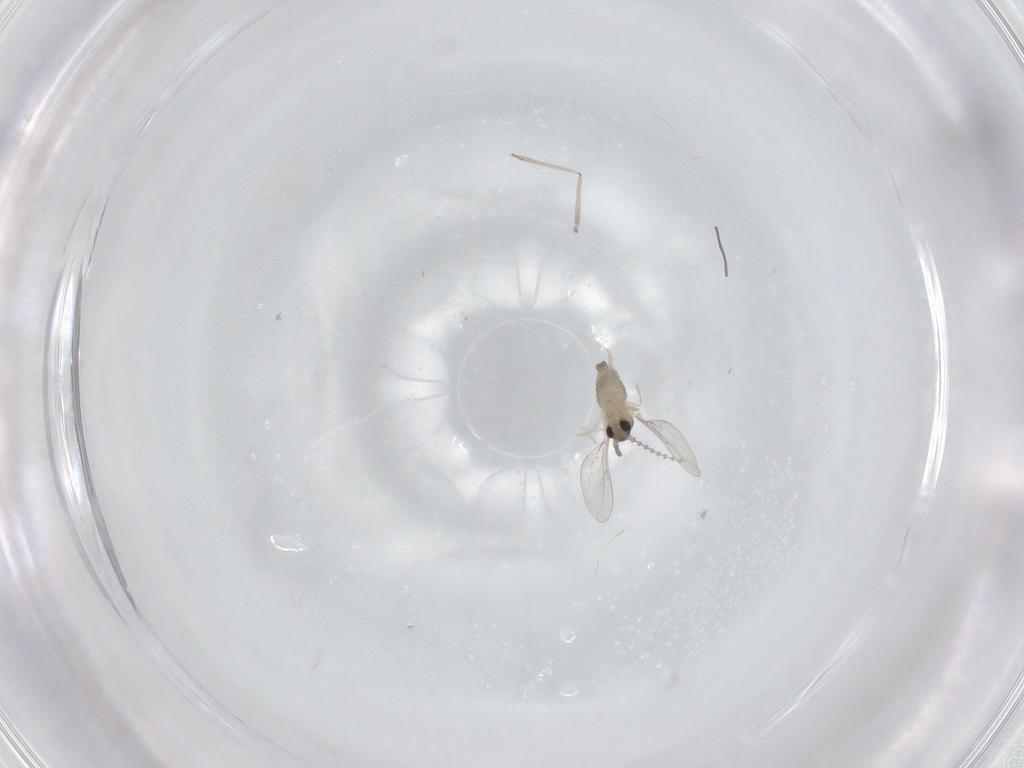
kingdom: Animalia
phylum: Arthropoda
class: Insecta
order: Diptera
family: Cecidomyiidae
